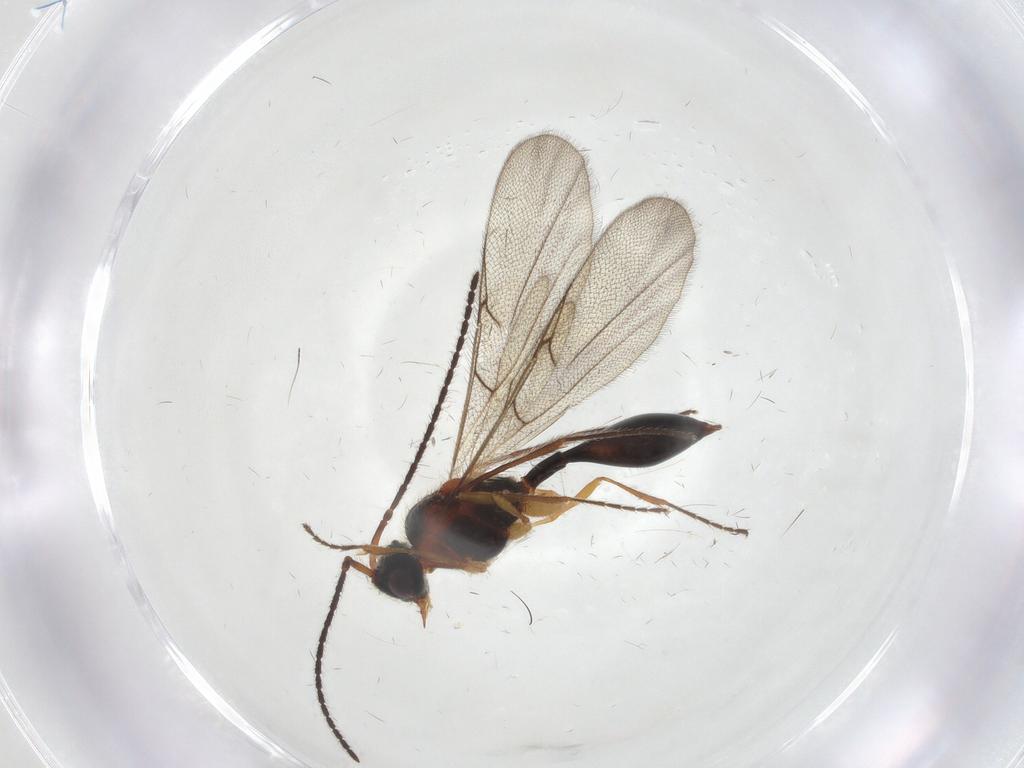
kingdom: Animalia
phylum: Arthropoda
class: Insecta
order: Hymenoptera
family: Diapriidae
